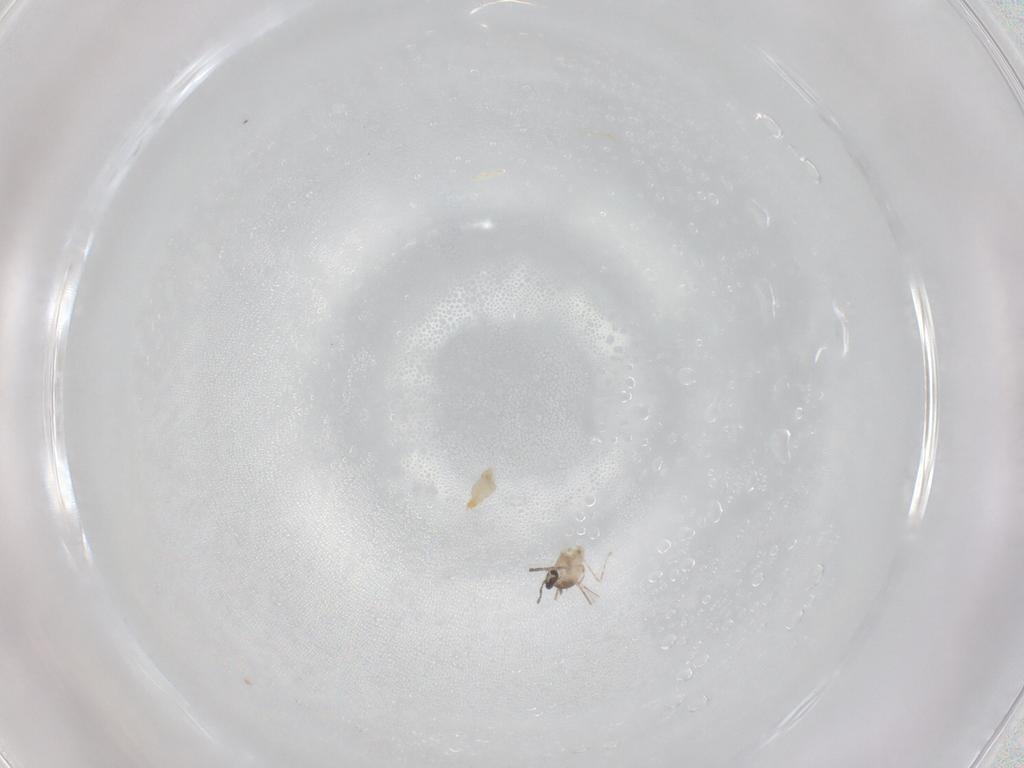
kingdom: Animalia
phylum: Arthropoda
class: Insecta
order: Diptera
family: Cecidomyiidae
